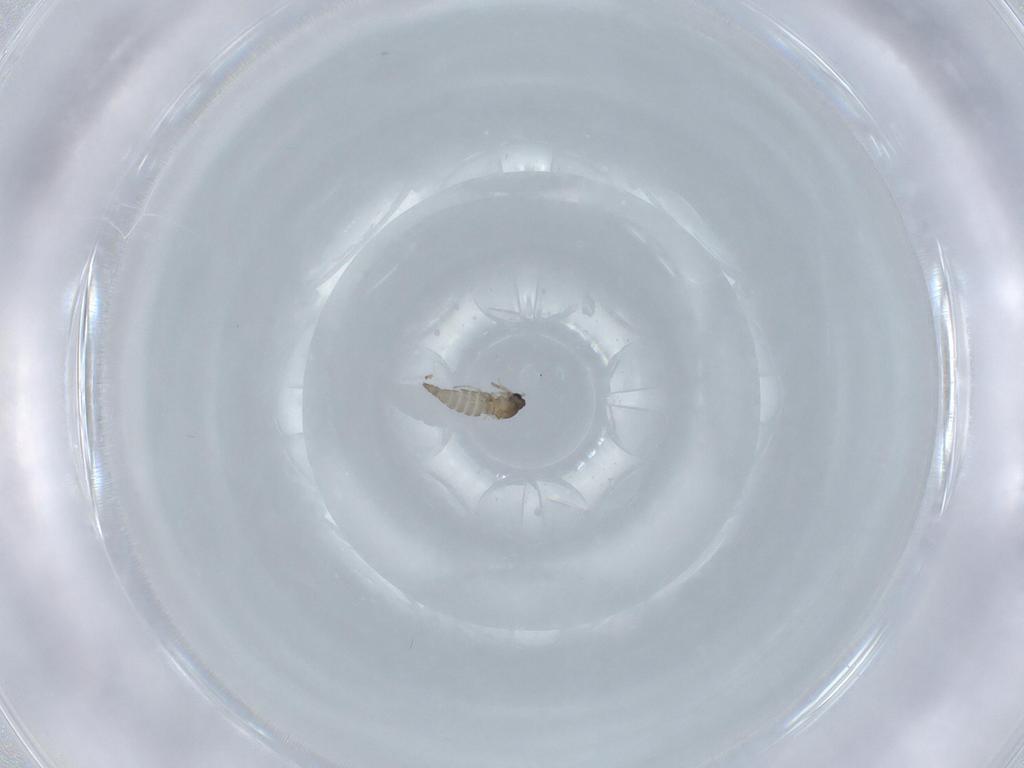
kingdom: Animalia
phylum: Arthropoda
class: Insecta
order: Diptera
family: Cecidomyiidae
